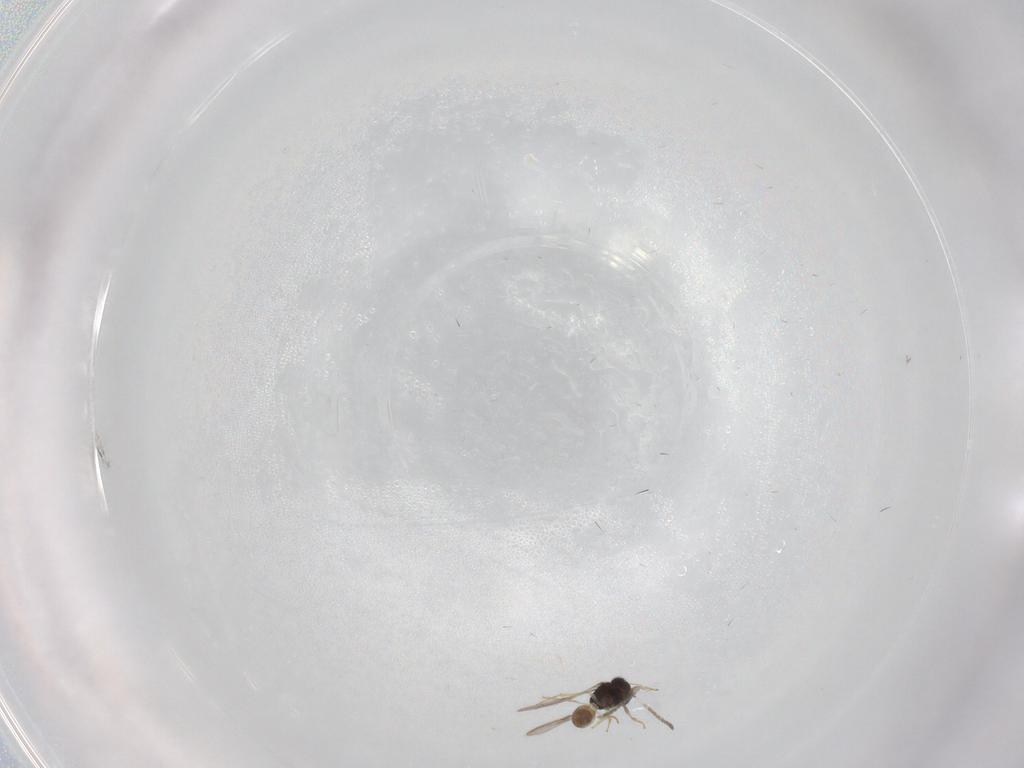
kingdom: Animalia
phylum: Arthropoda
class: Insecta
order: Hymenoptera
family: Scelionidae
